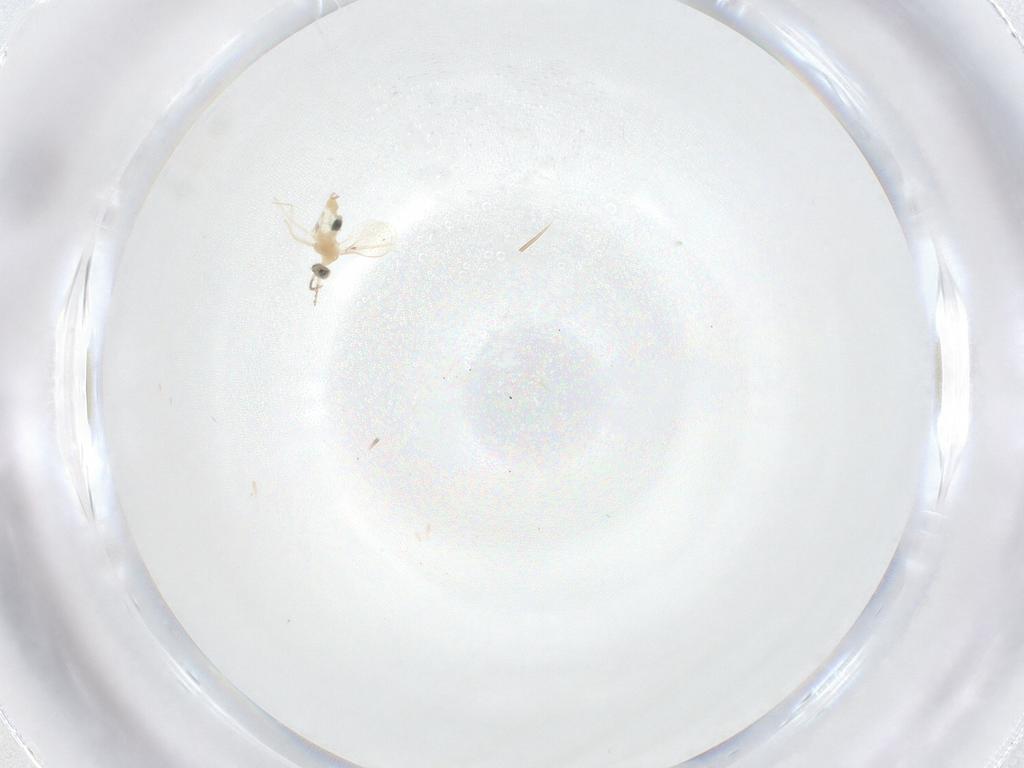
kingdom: Animalia
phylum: Arthropoda
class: Insecta
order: Diptera
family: Cecidomyiidae
